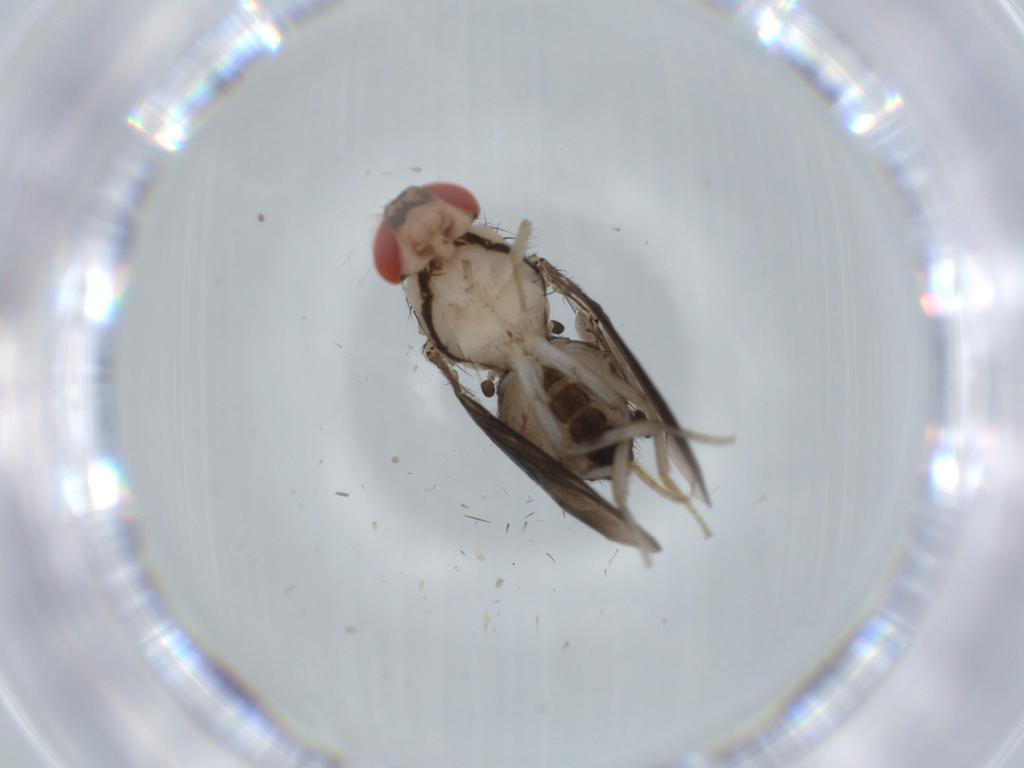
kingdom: Animalia
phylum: Arthropoda
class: Insecta
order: Diptera
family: Drosophilidae
